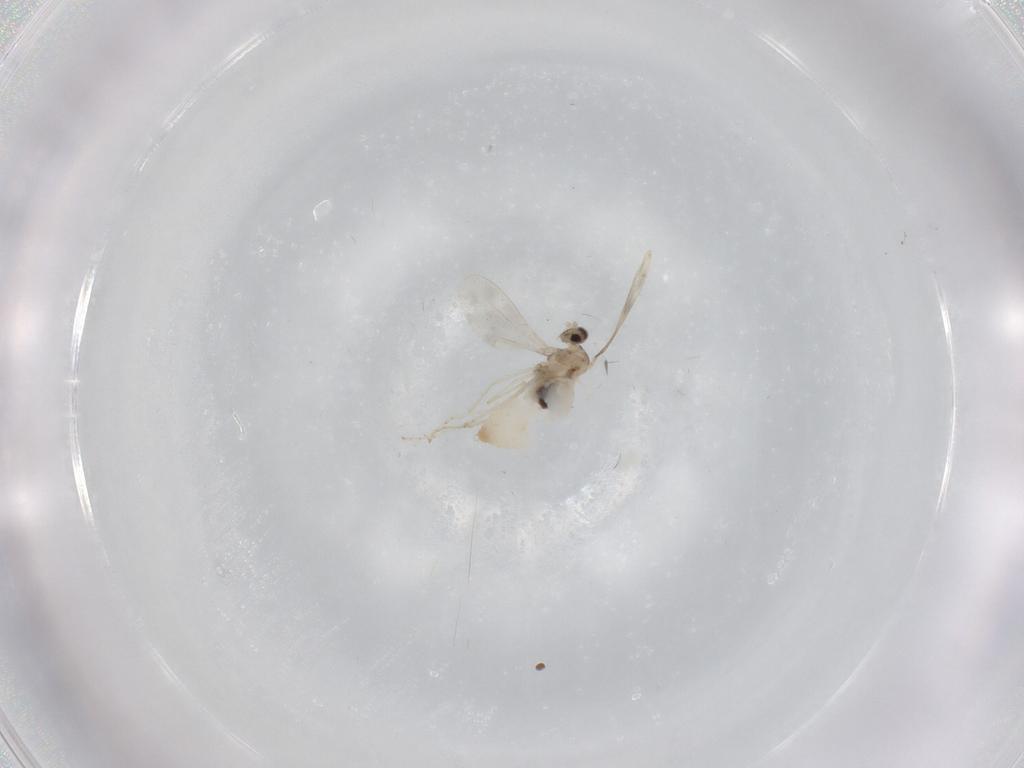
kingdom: Animalia
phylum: Arthropoda
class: Insecta
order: Diptera
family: Cecidomyiidae
